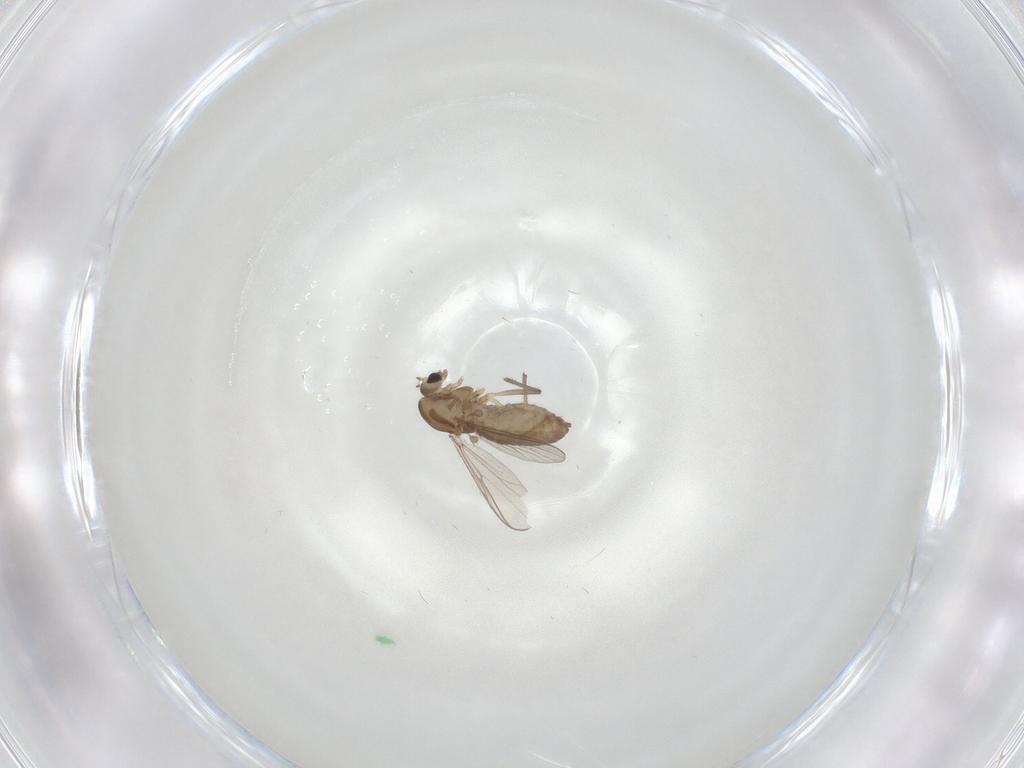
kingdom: Animalia
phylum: Arthropoda
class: Insecta
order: Diptera
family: Chironomidae
